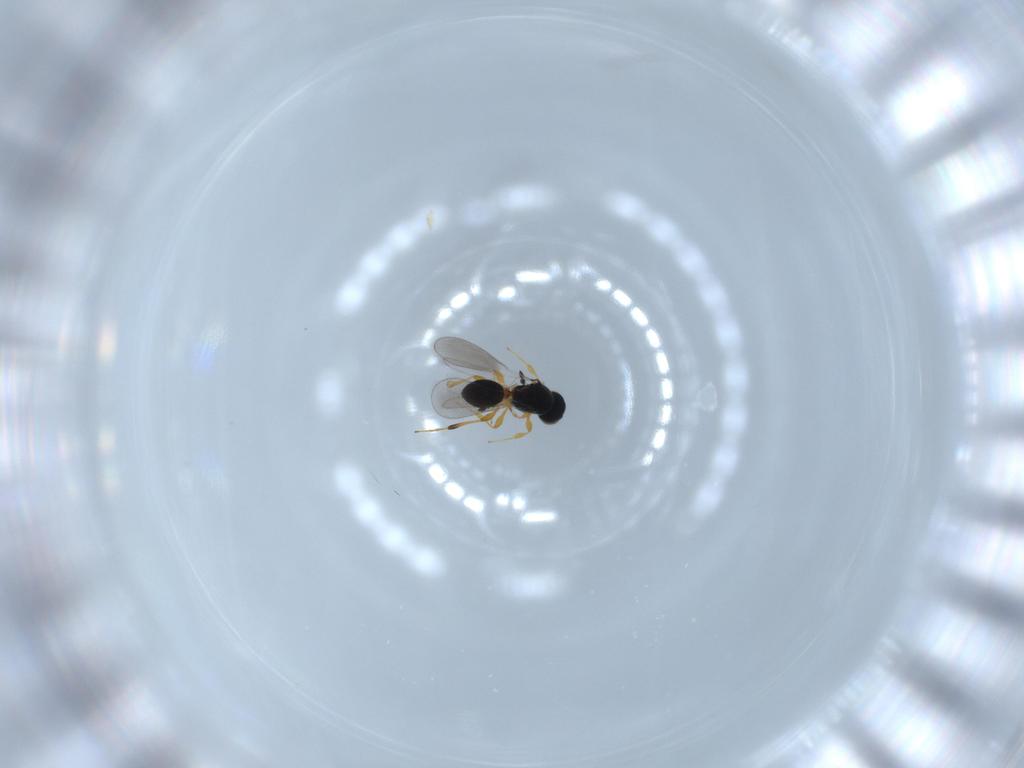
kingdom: Animalia
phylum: Arthropoda
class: Insecta
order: Hymenoptera
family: Platygastridae
